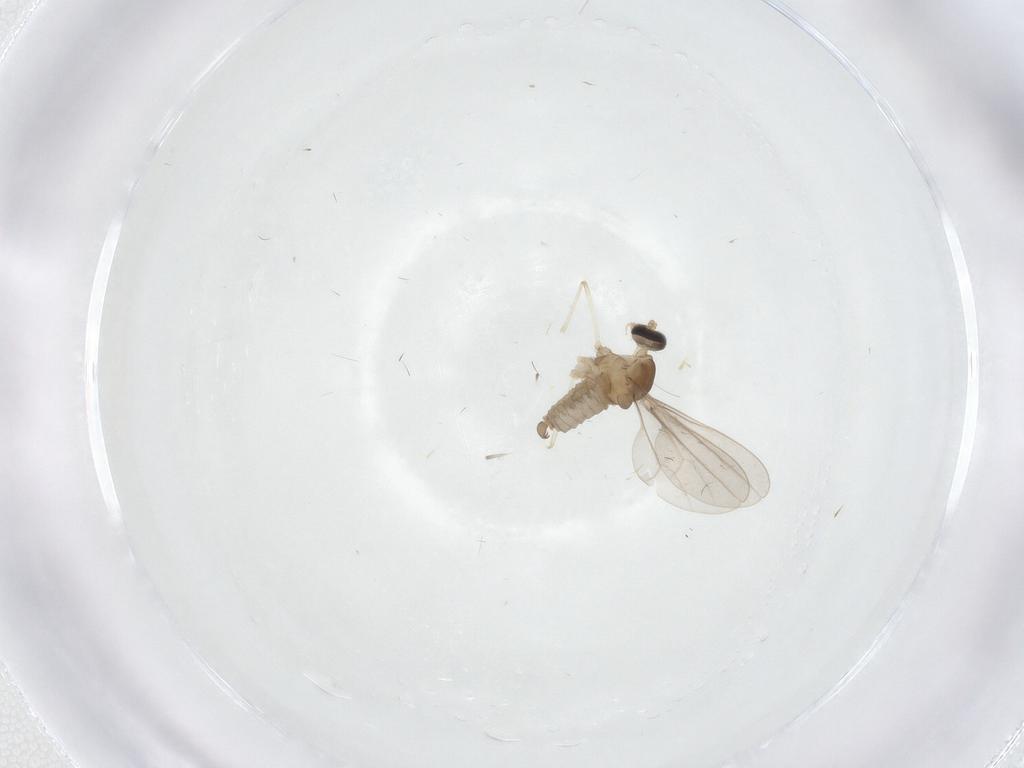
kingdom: Animalia
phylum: Arthropoda
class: Insecta
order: Diptera
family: Cecidomyiidae
